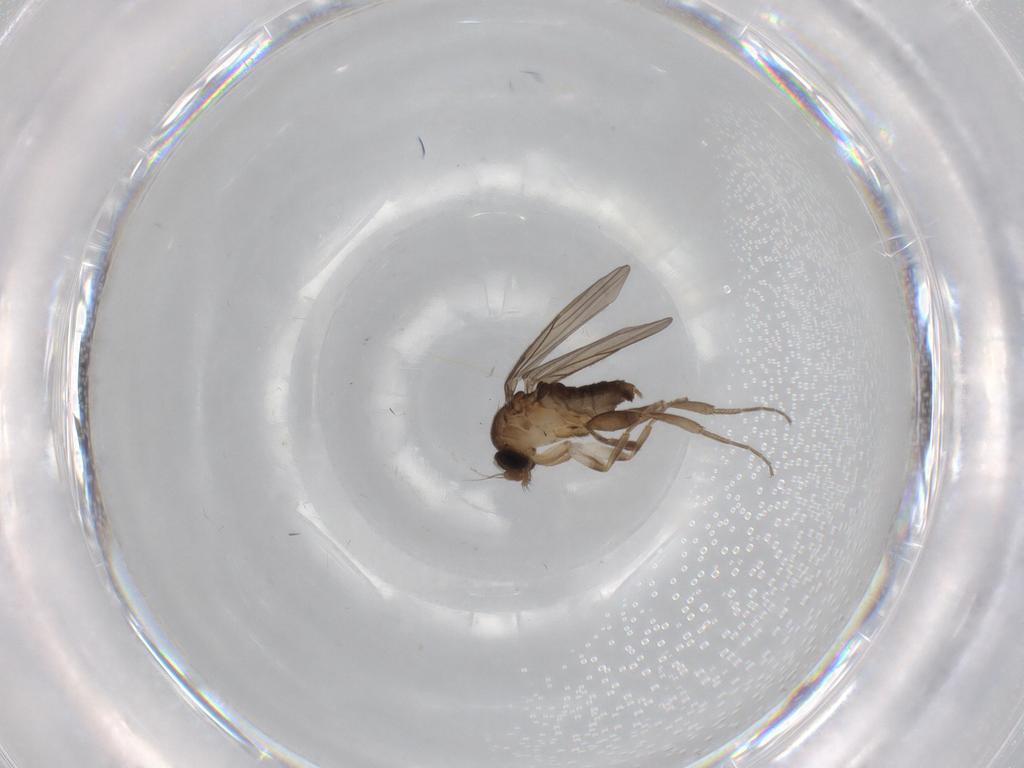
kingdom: Animalia
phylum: Arthropoda
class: Insecta
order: Diptera
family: Ceratopogonidae
